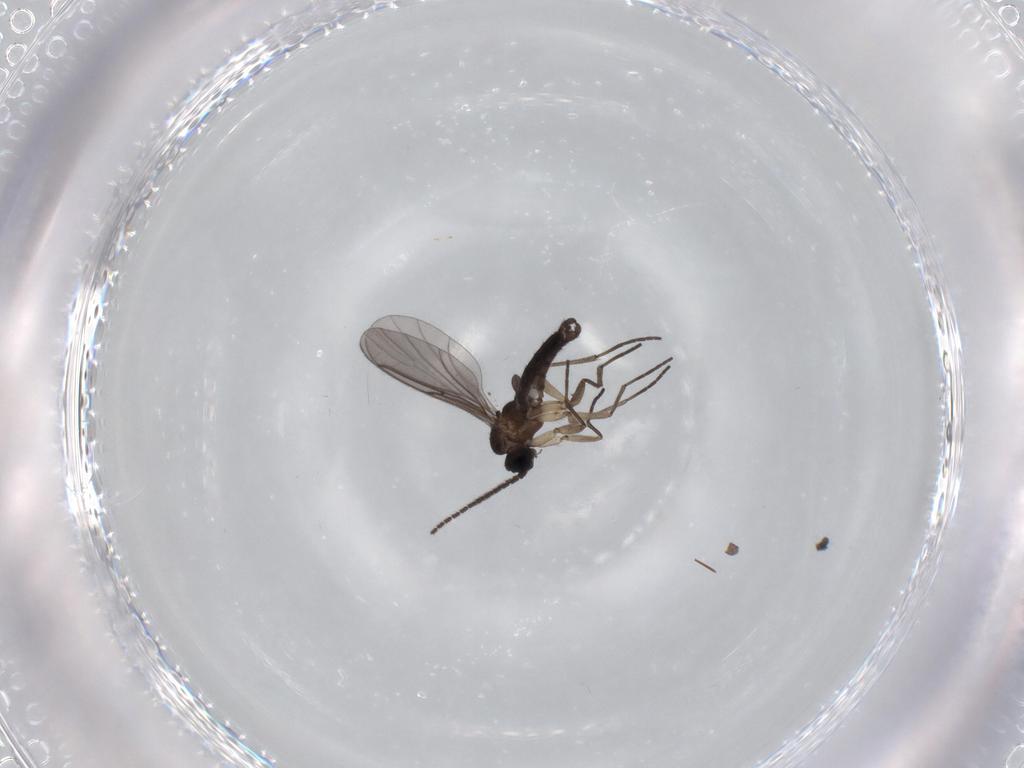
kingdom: Animalia
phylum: Arthropoda
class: Insecta
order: Diptera
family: Sciaridae
